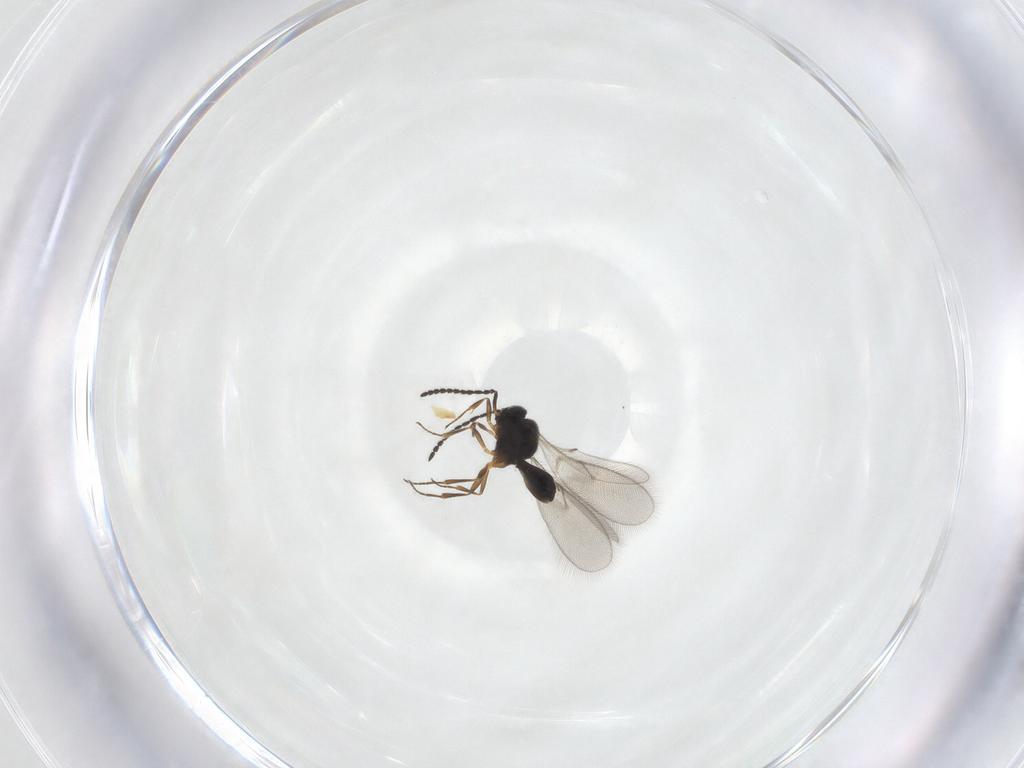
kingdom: Animalia
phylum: Arthropoda
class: Insecta
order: Hymenoptera
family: Scelionidae
